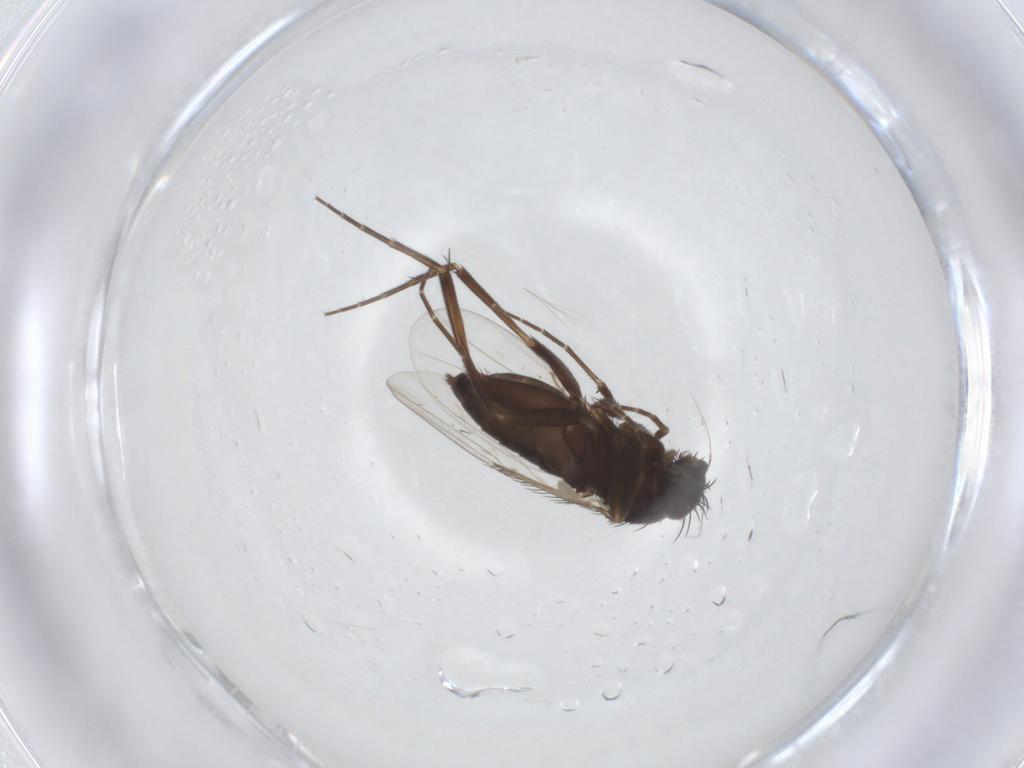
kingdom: Animalia
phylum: Arthropoda
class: Insecta
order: Diptera
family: Phoridae
